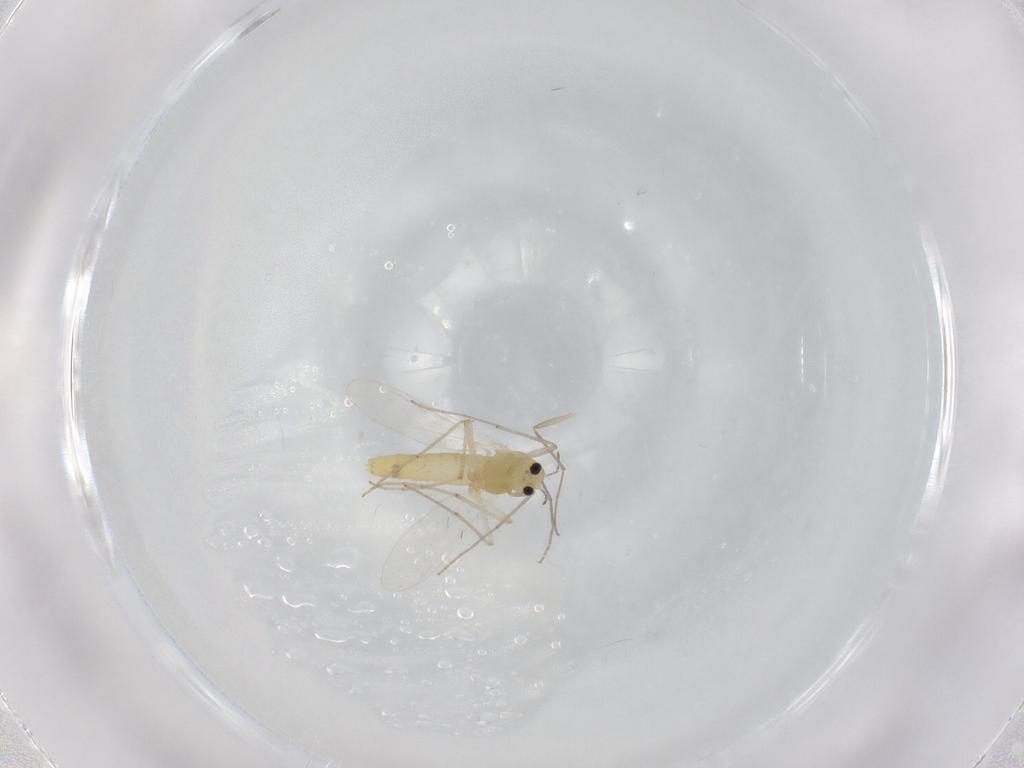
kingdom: Animalia
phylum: Arthropoda
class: Insecta
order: Diptera
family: Chironomidae
